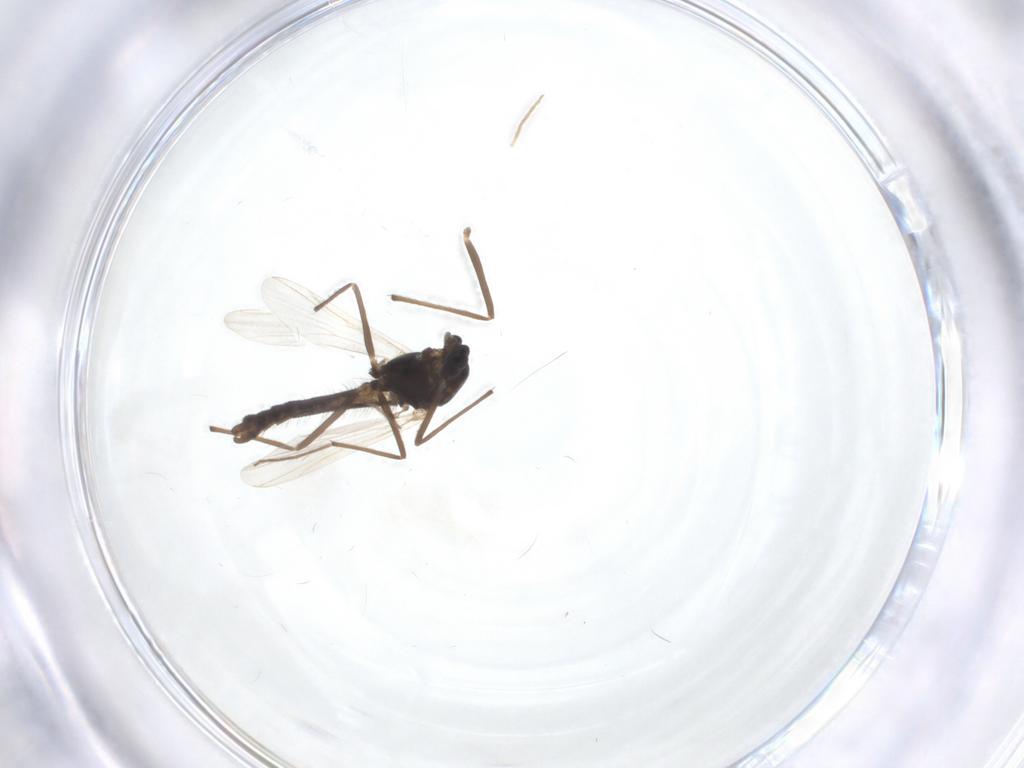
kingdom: Animalia
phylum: Arthropoda
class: Insecta
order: Diptera
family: Chironomidae
